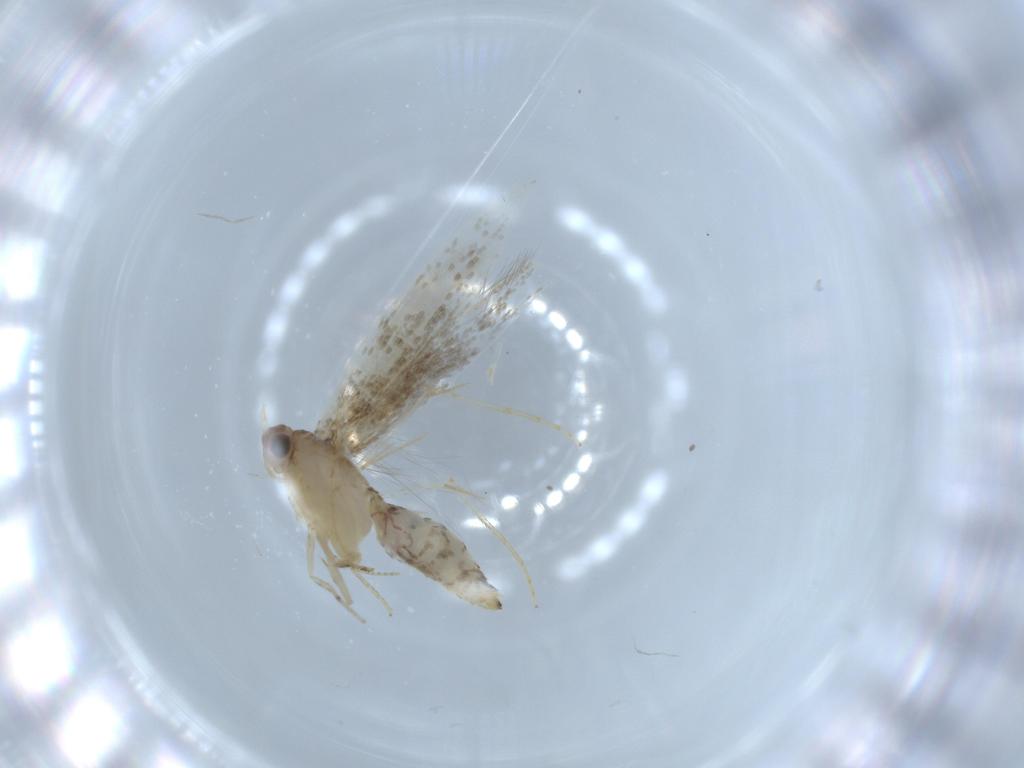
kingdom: Animalia
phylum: Arthropoda
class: Insecta
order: Lepidoptera
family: Tineidae
